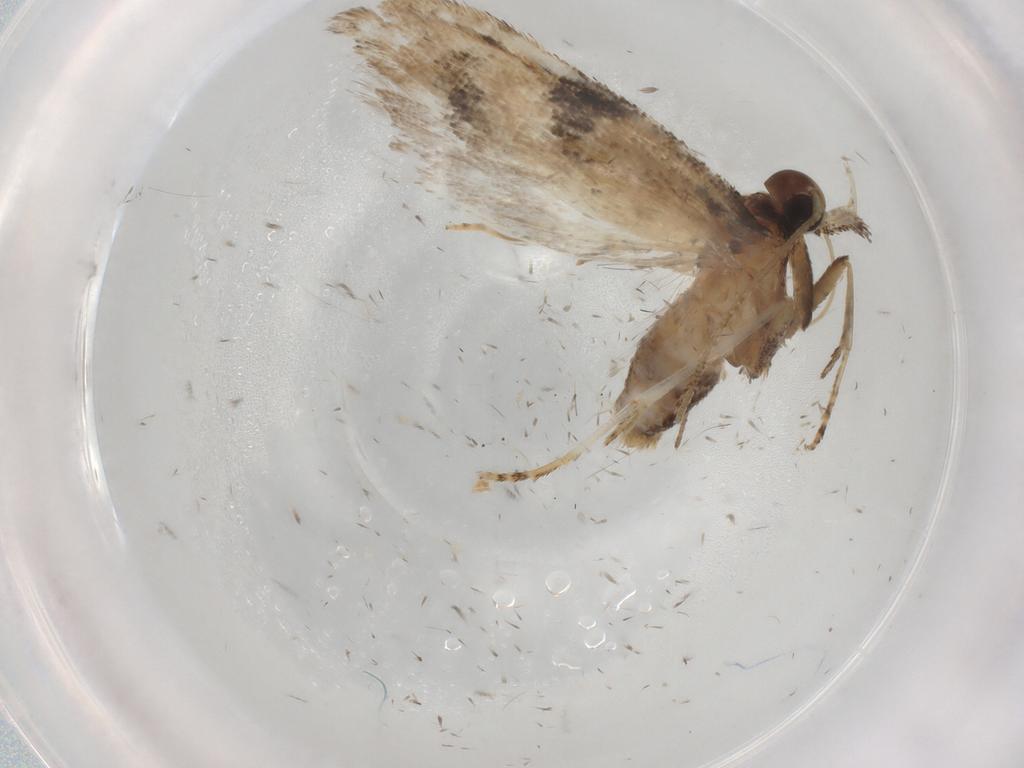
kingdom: Animalia
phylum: Arthropoda
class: Insecta
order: Lepidoptera
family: Gelechiidae
